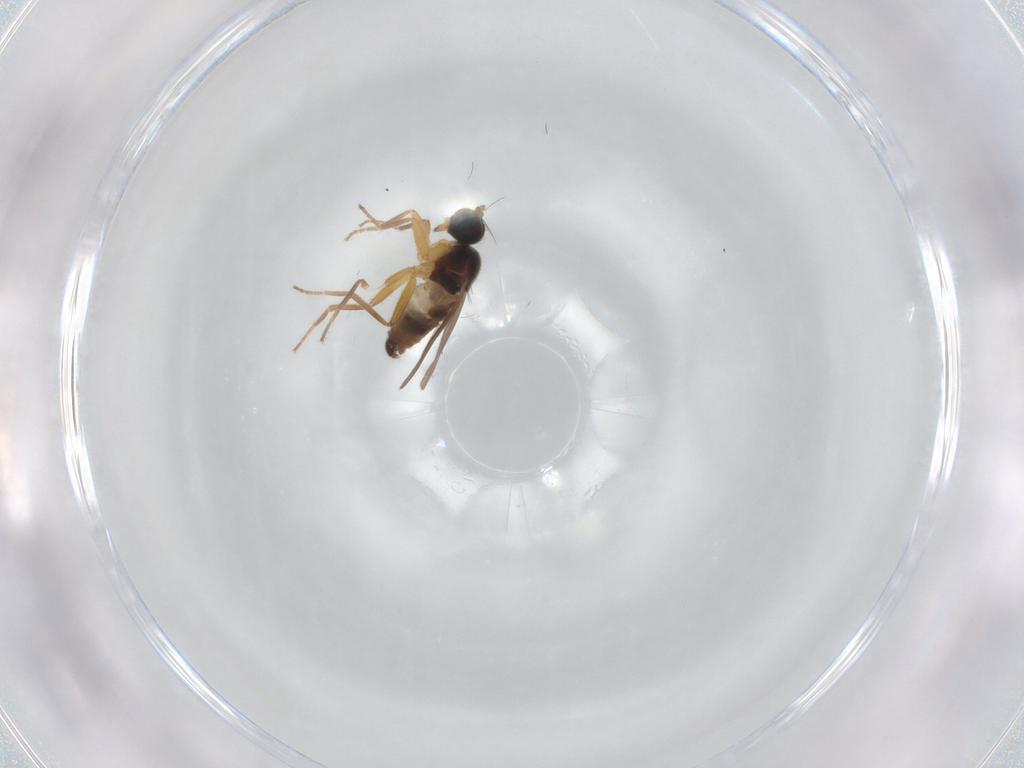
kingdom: Animalia
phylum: Arthropoda
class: Insecta
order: Diptera
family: Hybotidae
